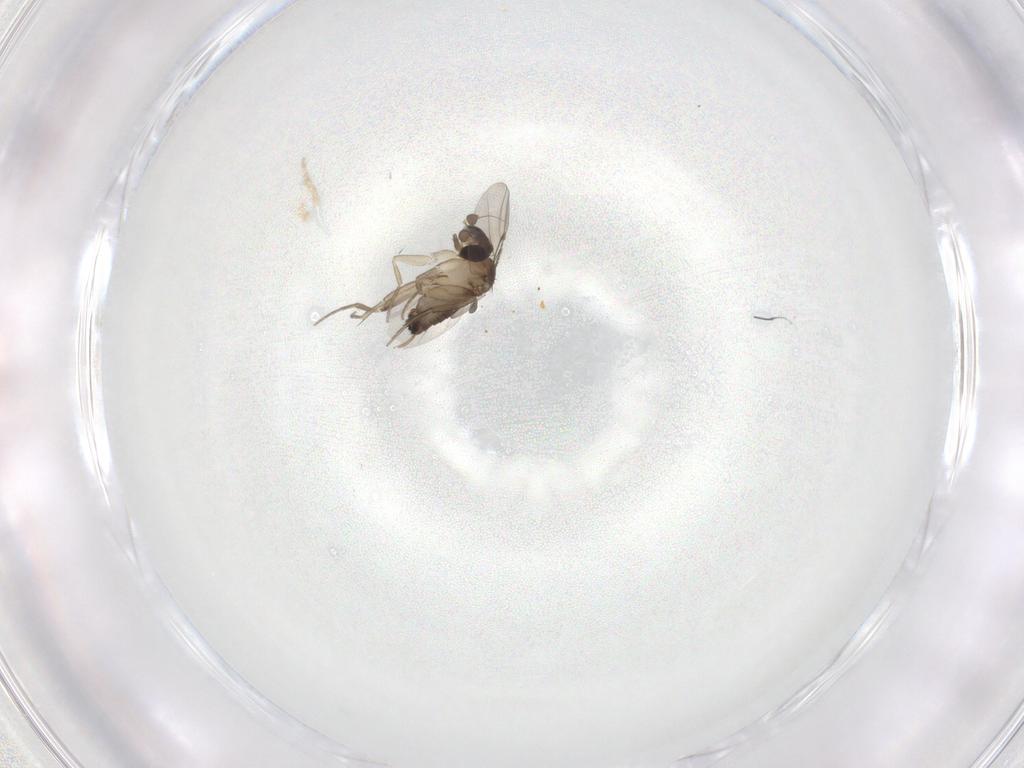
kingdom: Animalia
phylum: Arthropoda
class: Insecta
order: Diptera
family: Phoridae
